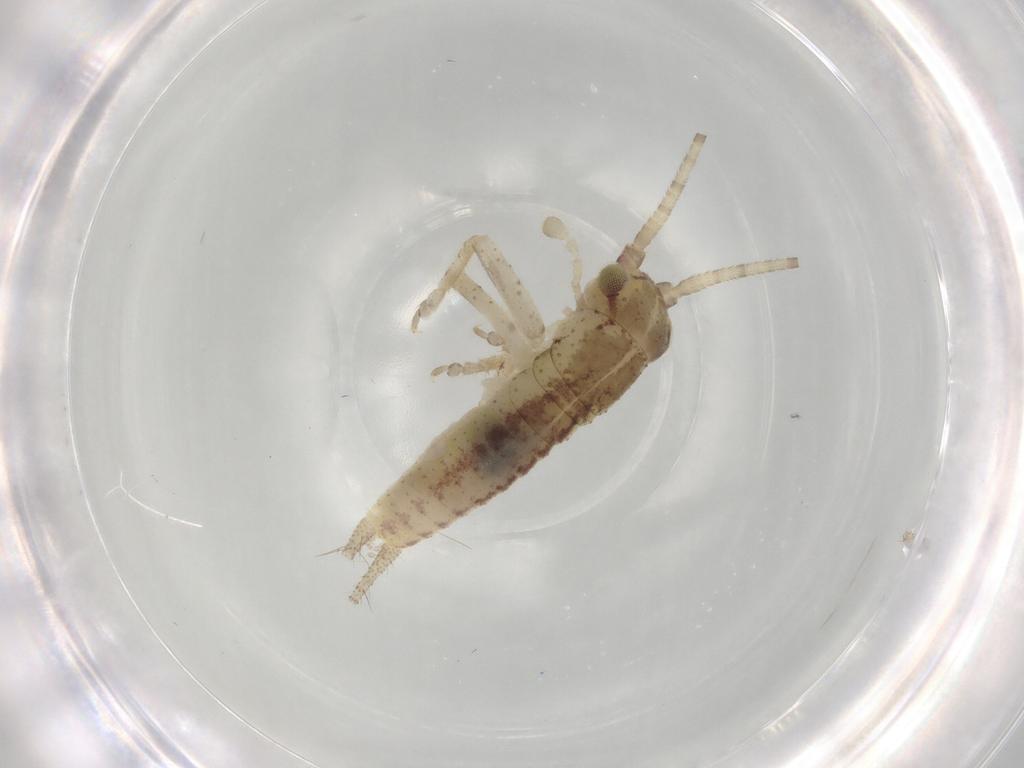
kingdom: Animalia
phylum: Arthropoda
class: Insecta
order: Orthoptera
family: Gryllidae
